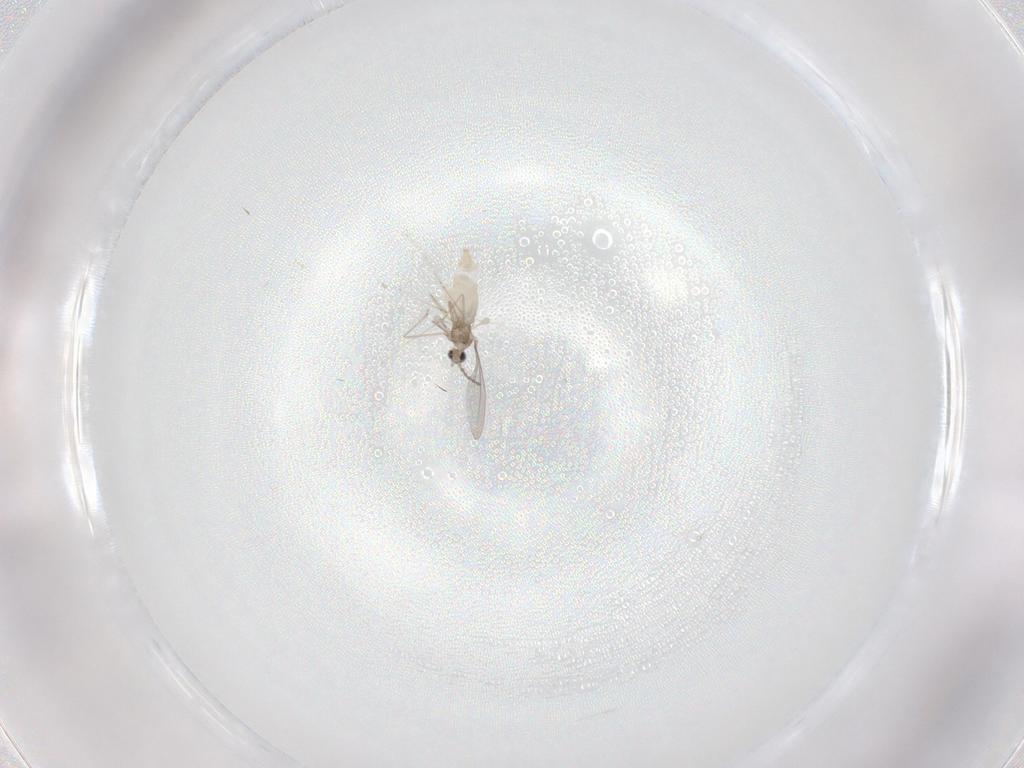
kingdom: Animalia
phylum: Arthropoda
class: Insecta
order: Diptera
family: Cecidomyiidae
